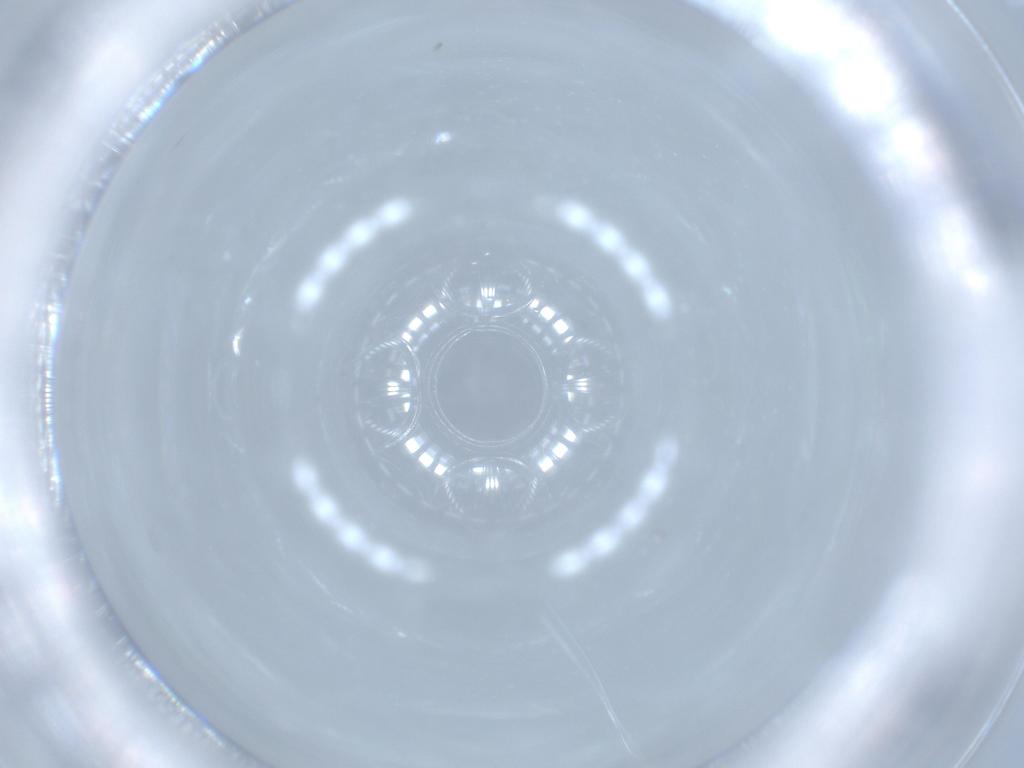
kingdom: Animalia
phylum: Arthropoda
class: Insecta
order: Diptera
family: Cecidomyiidae
